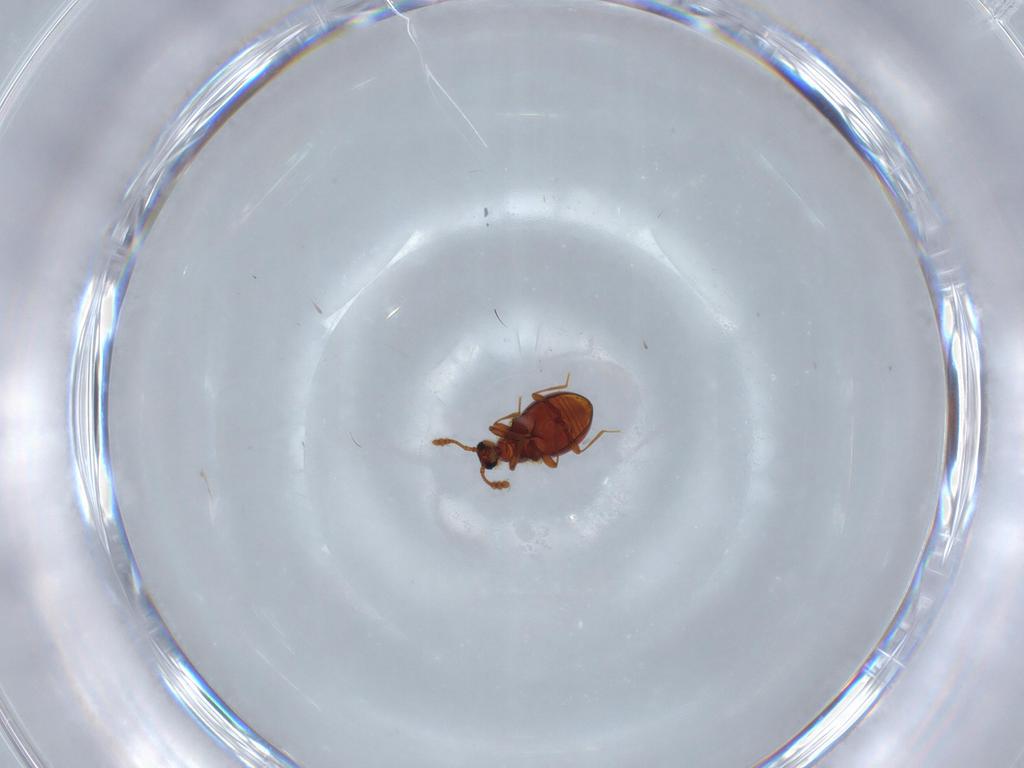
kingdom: Animalia
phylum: Arthropoda
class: Insecta
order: Coleoptera
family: Staphylinidae
